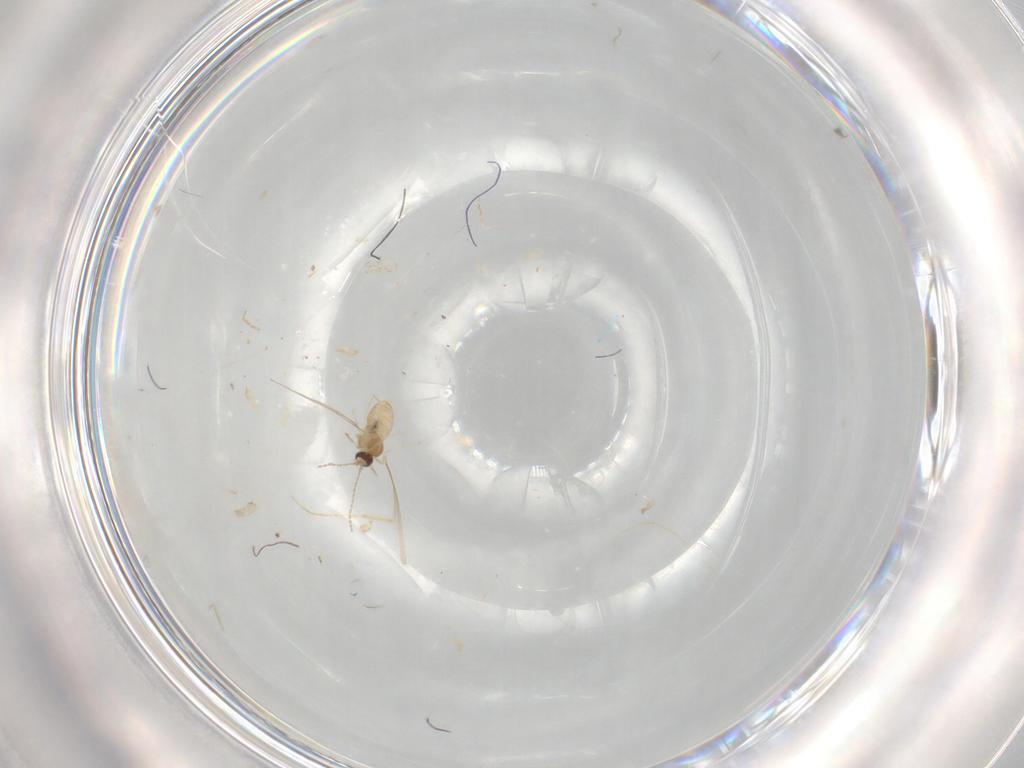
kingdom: Animalia
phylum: Arthropoda
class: Insecta
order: Diptera
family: Cecidomyiidae
